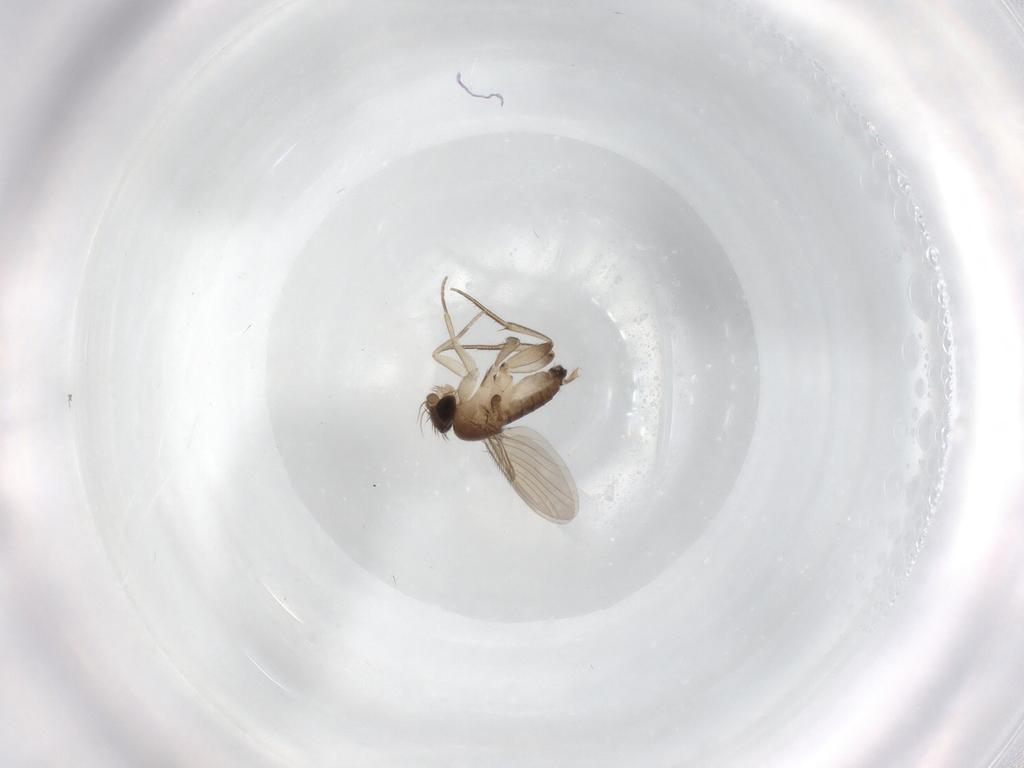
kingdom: Animalia
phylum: Arthropoda
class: Insecta
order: Diptera
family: Phoridae
